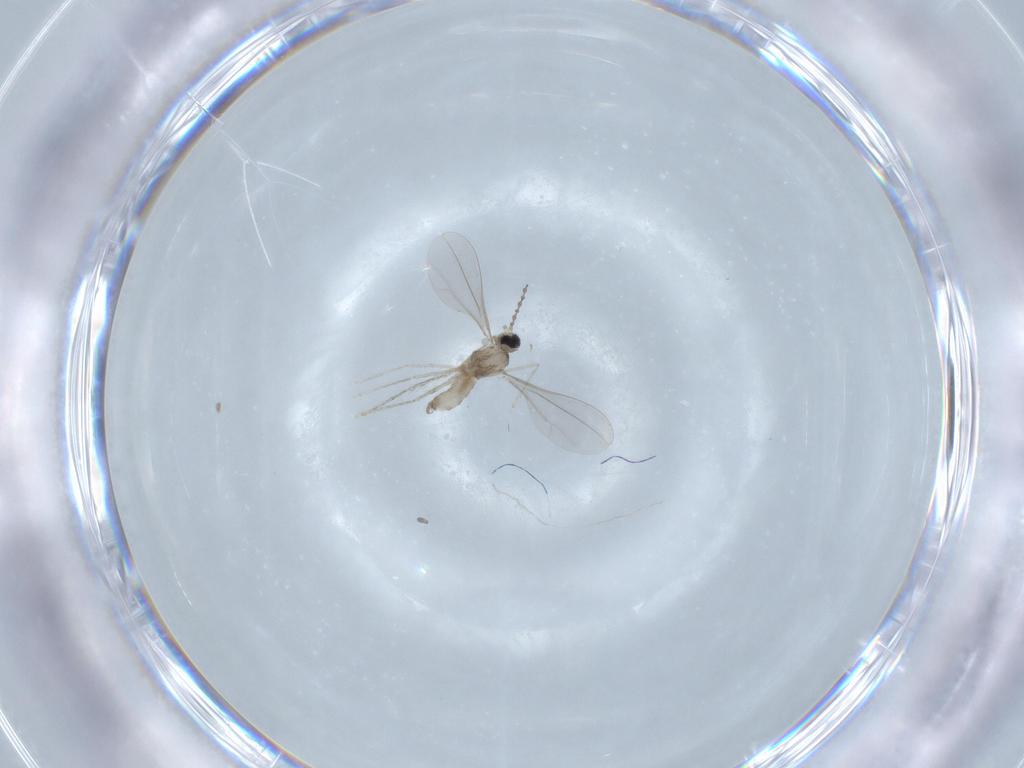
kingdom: Animalia
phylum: Arthropoda
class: Insecta
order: Diptera
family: Cecidomyiidae
